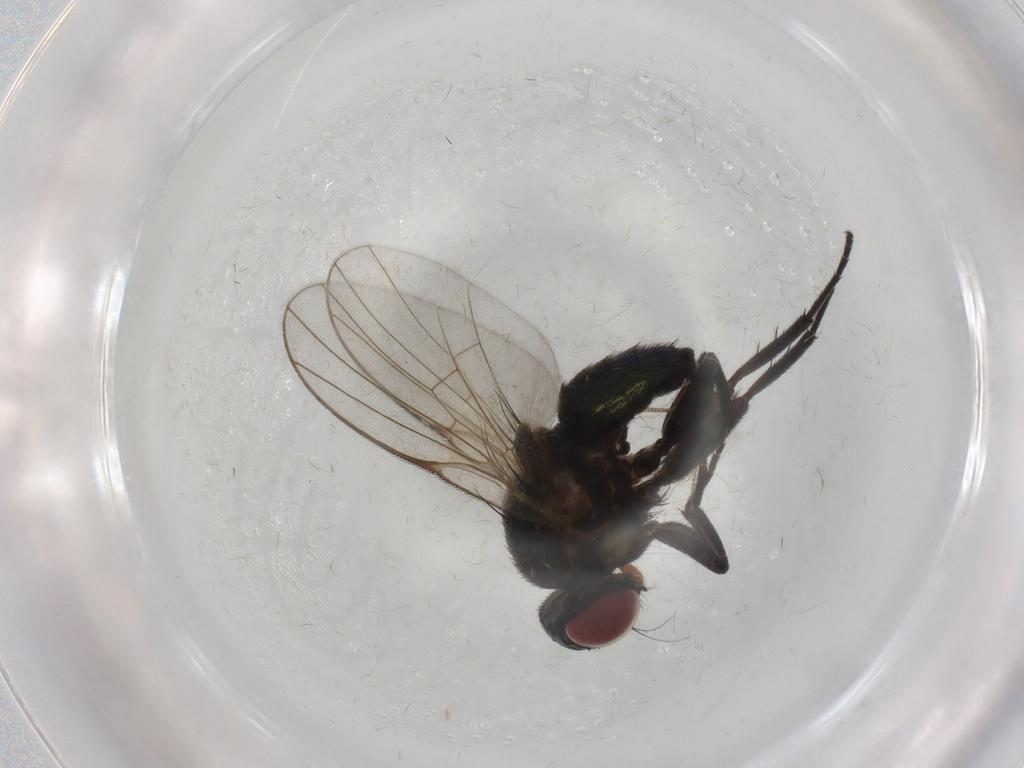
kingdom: Animalia
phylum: Arthropoda
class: Insecta
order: Diptera
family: Agromyzidae
